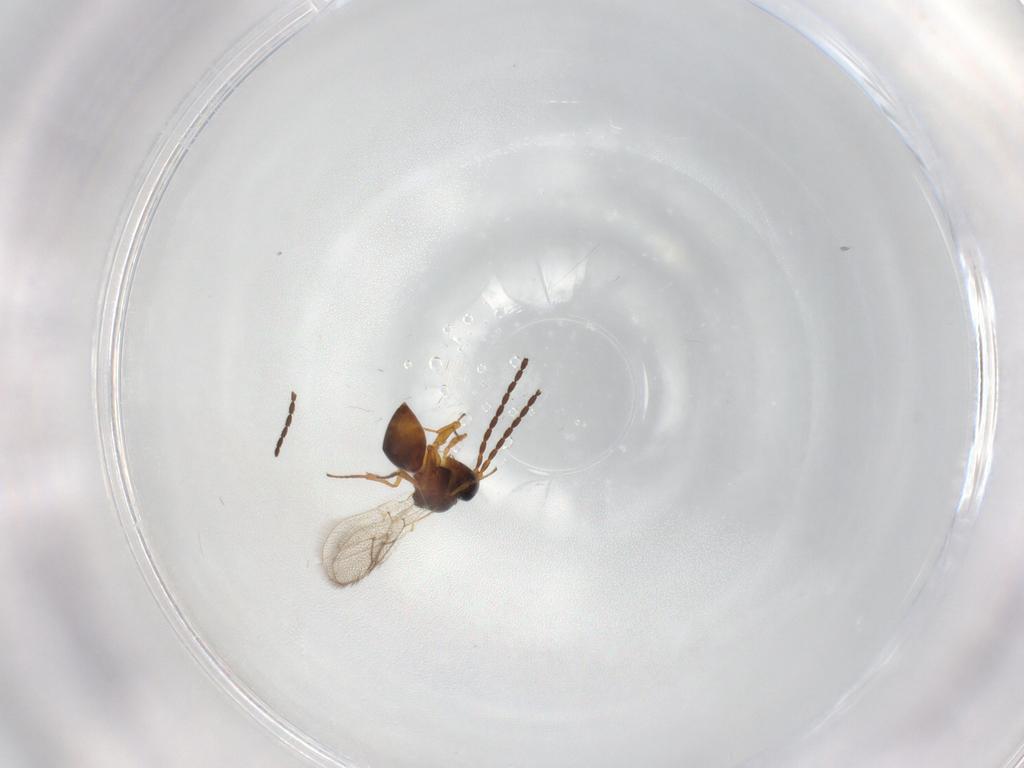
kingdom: Animalia
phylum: Arthropoda
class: Insecta
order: Hymenoptera
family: Figitidae
